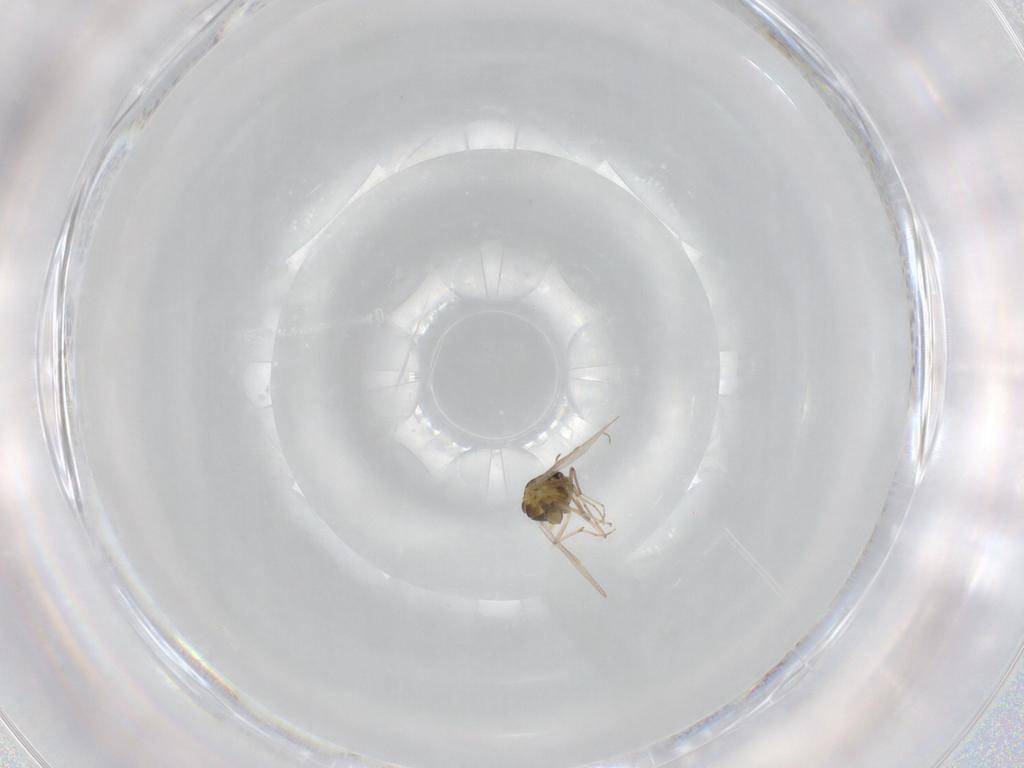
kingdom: Animalia
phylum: Arthropoda
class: Insecta
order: Diptera
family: Chironomidae
